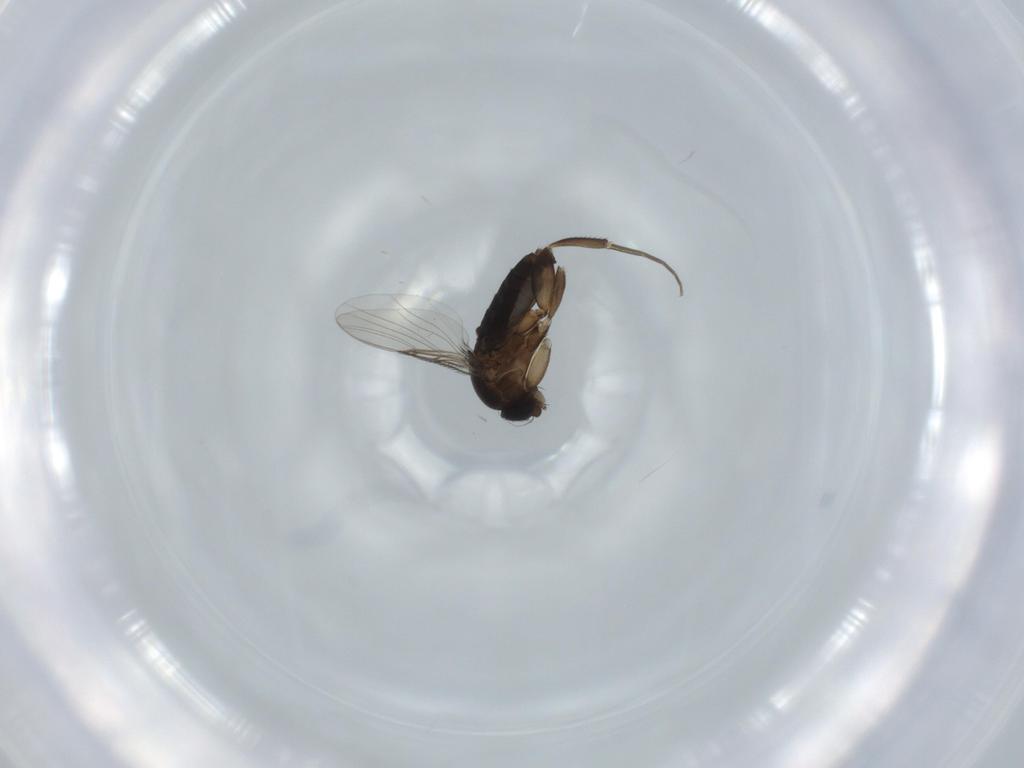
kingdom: Animalia
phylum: Arthropoda
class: Insecta
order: Diptera
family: Phoridae
